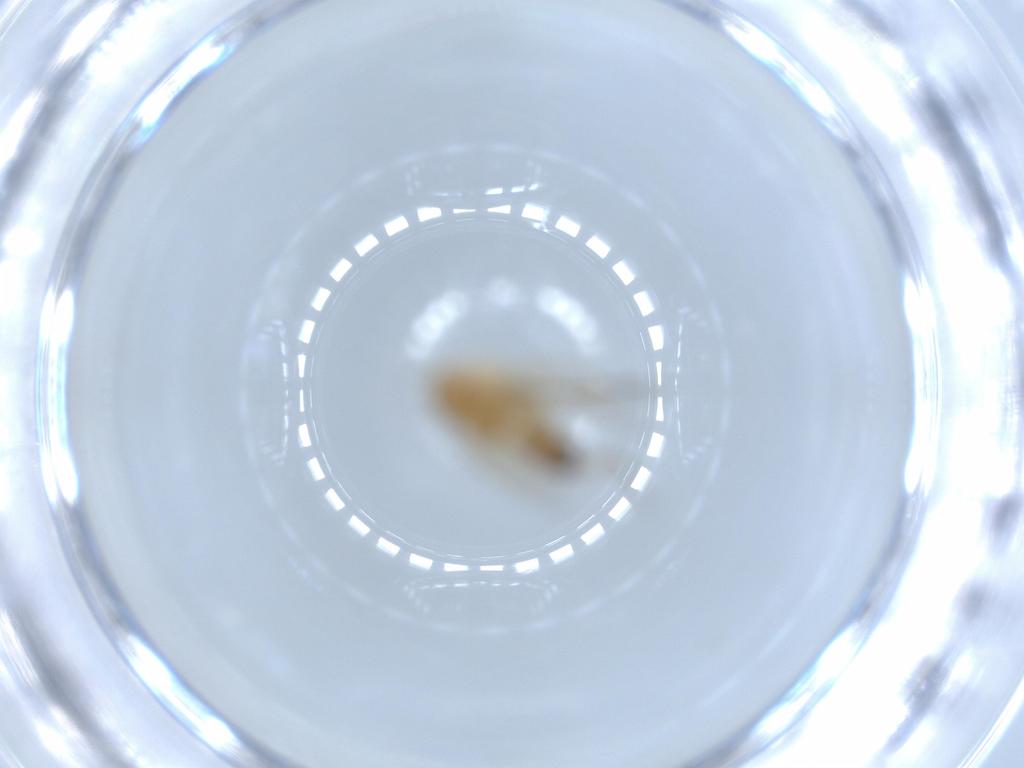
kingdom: Animalia
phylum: Arthropoda
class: Insecta
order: Diptera
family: Phoridae
